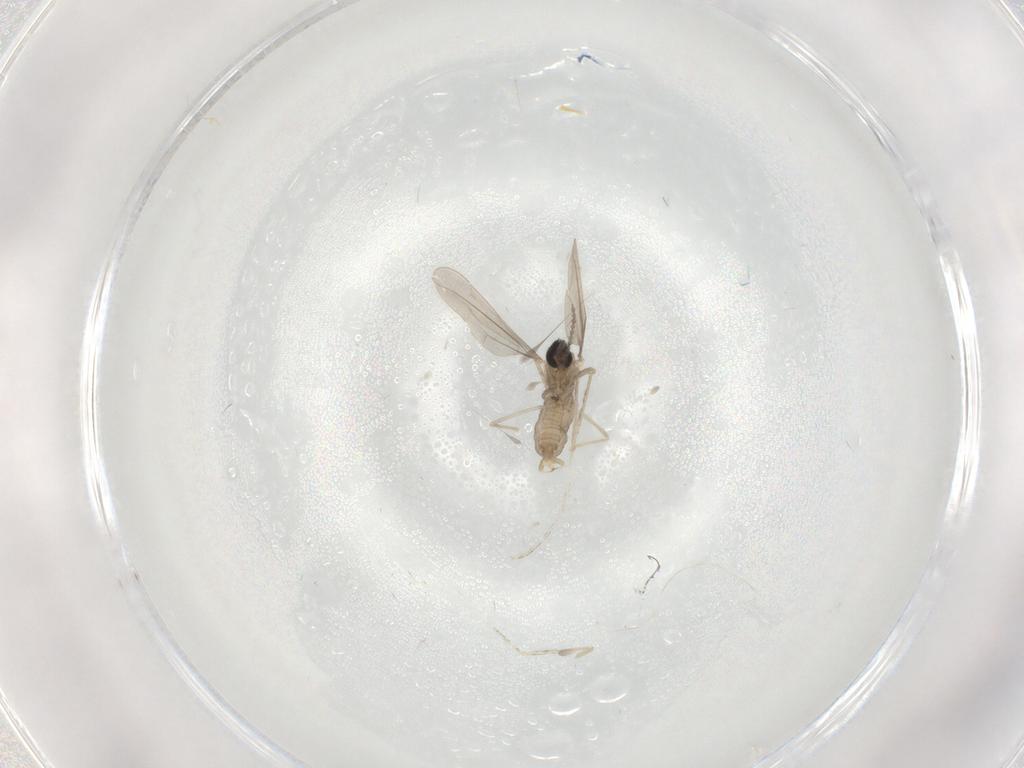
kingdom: Animalia
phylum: Arthropoda
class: Insecta
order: Diptera
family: Cecidomyiidae
